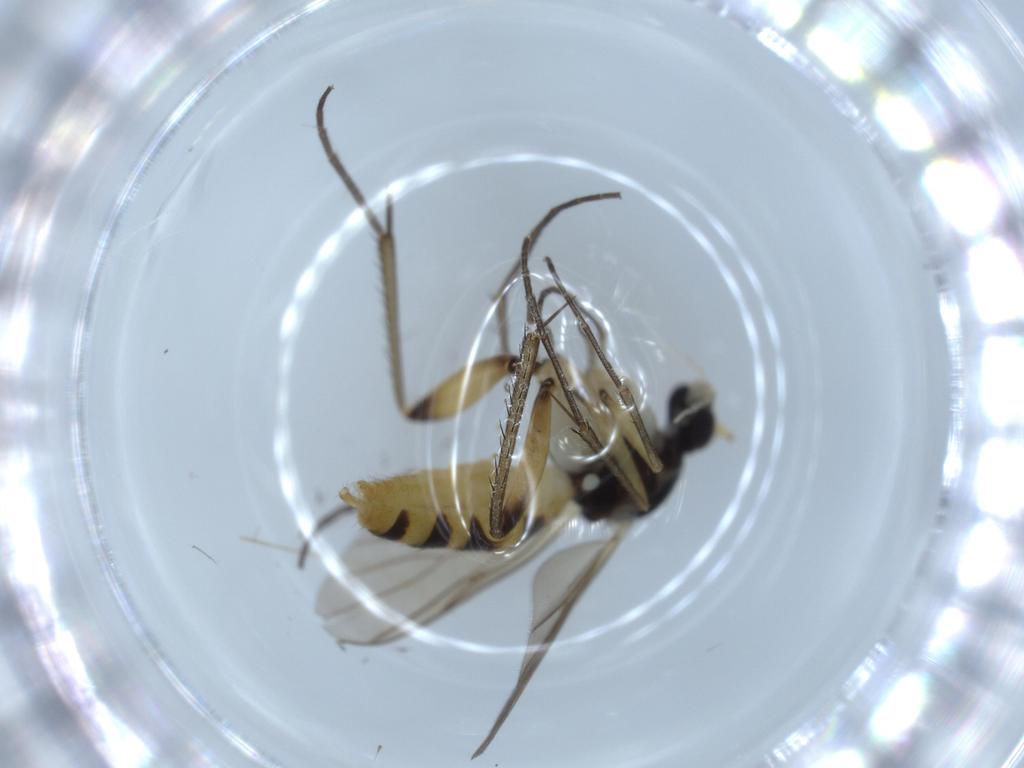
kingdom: Animalia
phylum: Arthropoda
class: Insecta
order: Diptera
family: Mycetophilidae
